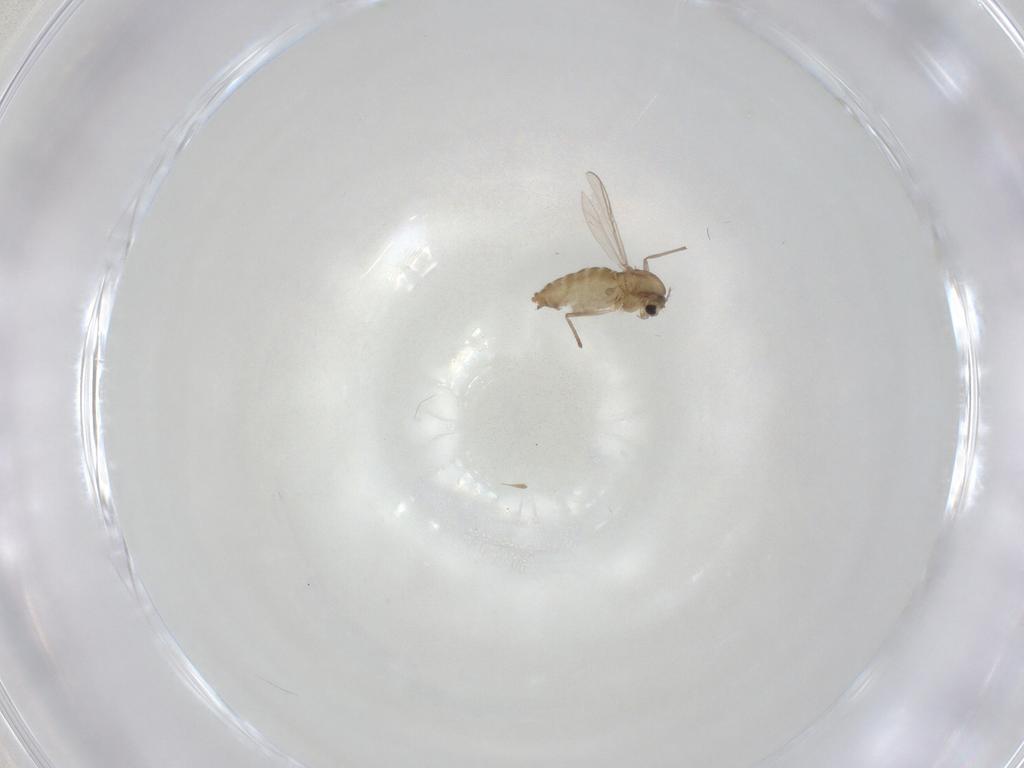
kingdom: Animalia
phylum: Arthropoda
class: Insecta
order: Diptera
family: Chironomidae
